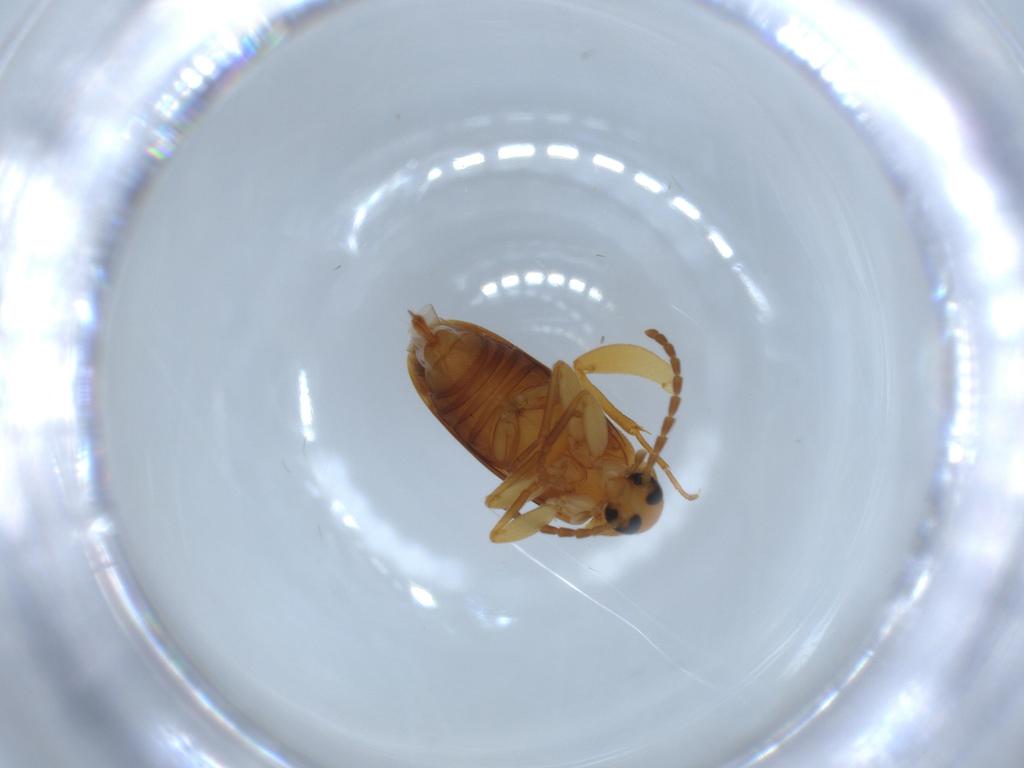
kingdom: Animalia
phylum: Arthropoda
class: Insecta
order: Coleoptera
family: Scraptiidae
